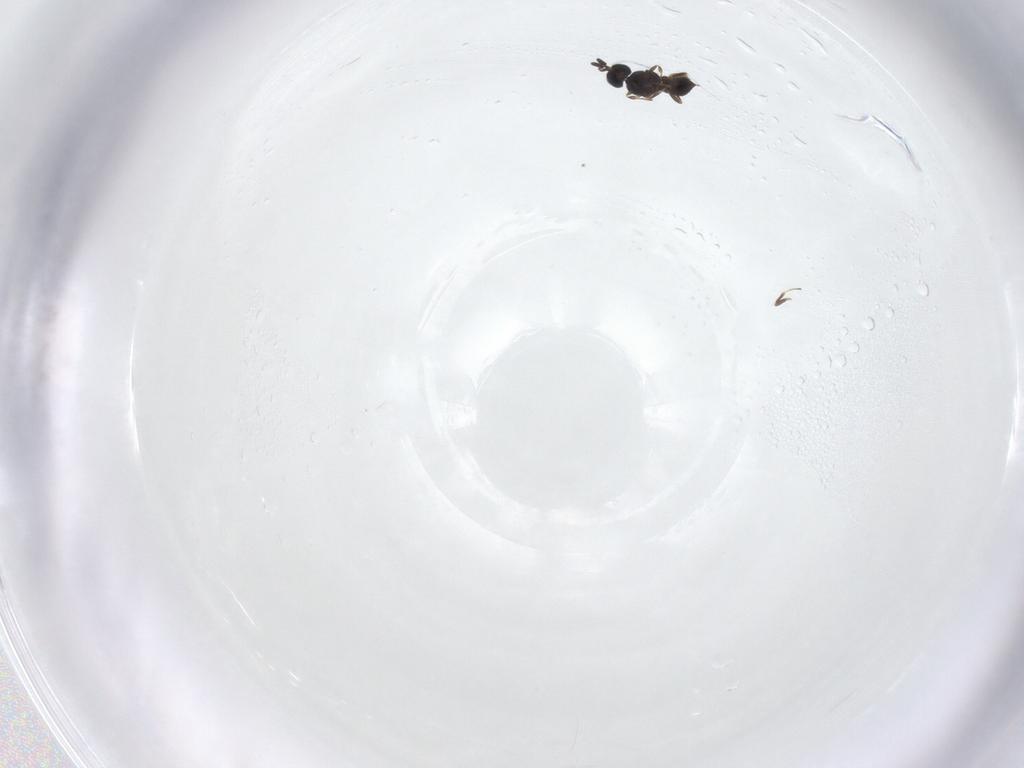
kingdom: Animalia
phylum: Arthropoda
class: Insecta
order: Hymenoptera
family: Scelionidae
